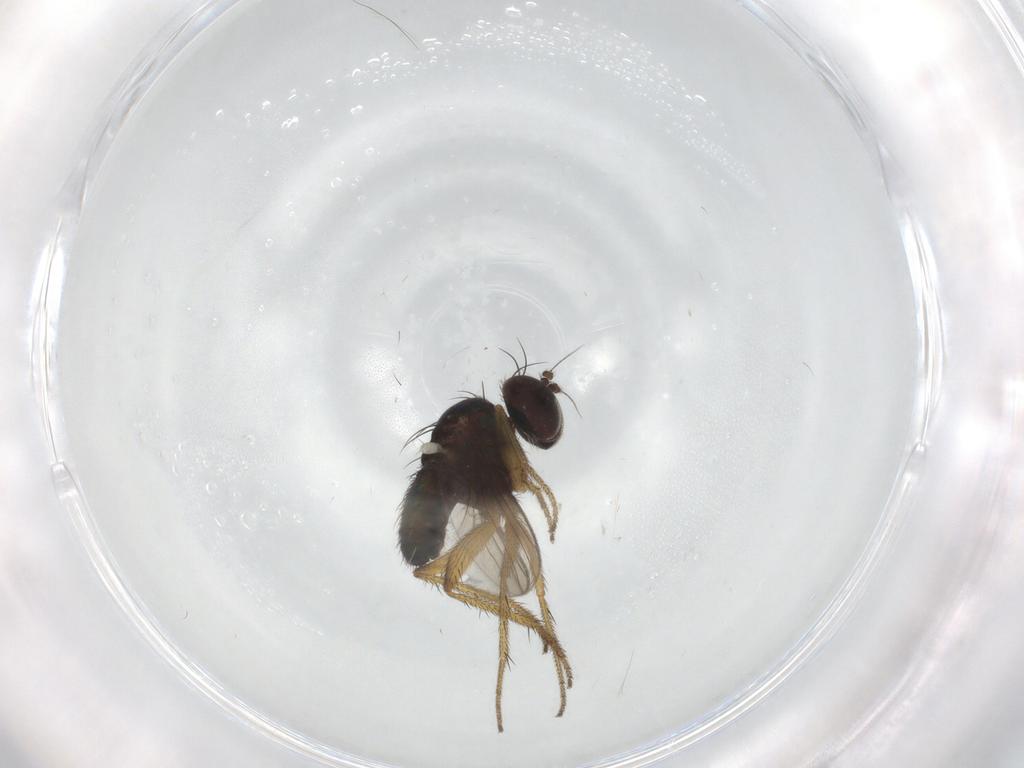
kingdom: Animalia
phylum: Arthropoda
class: Insecta
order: Diptera
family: Dolichopodidae
